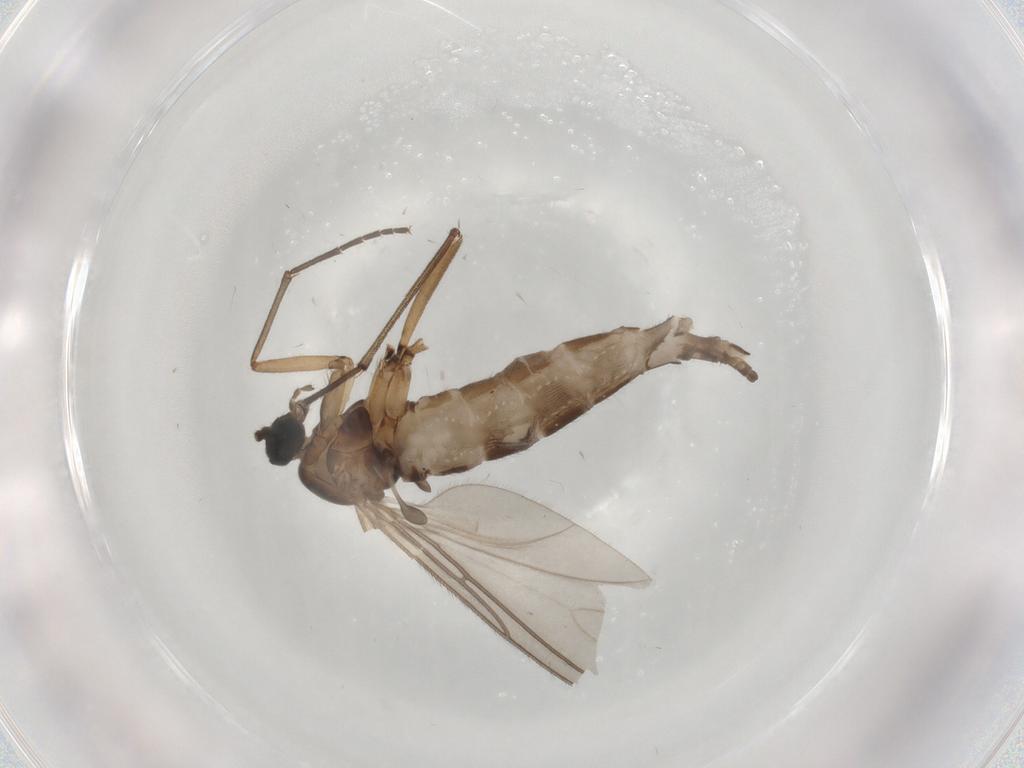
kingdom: Animalia
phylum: Arthropoda
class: Insecta
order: Diptera
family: Sciaridae
